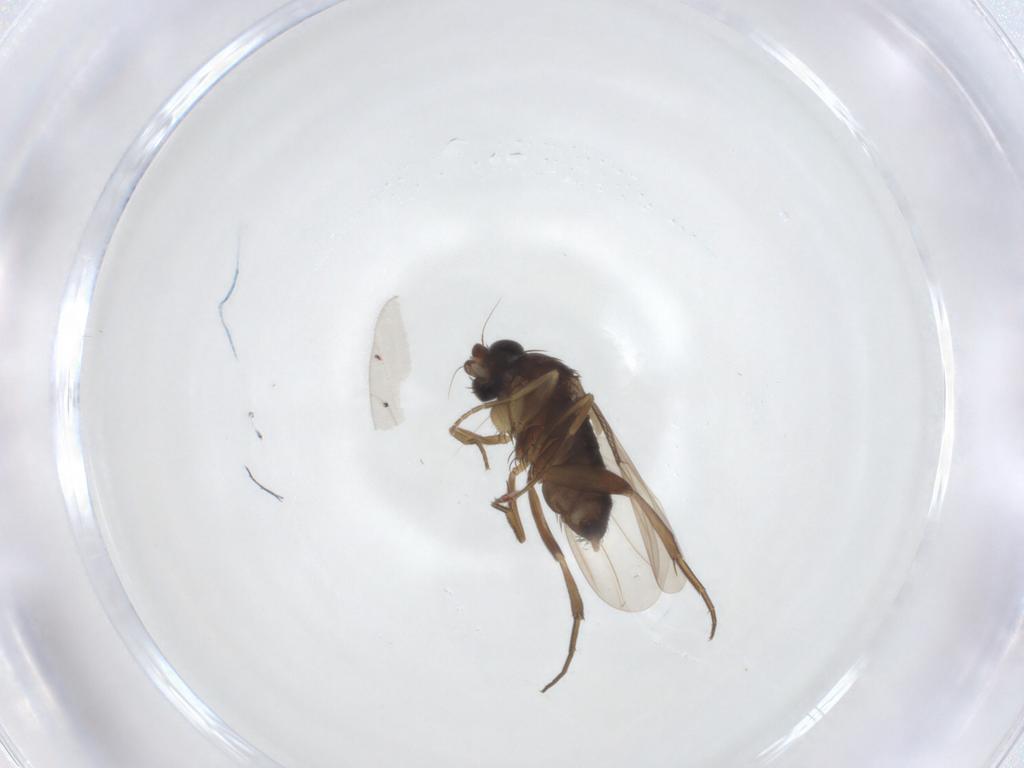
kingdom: Animalia
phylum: Arthropoda
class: Insecta
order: Diptera
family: Phoridae
